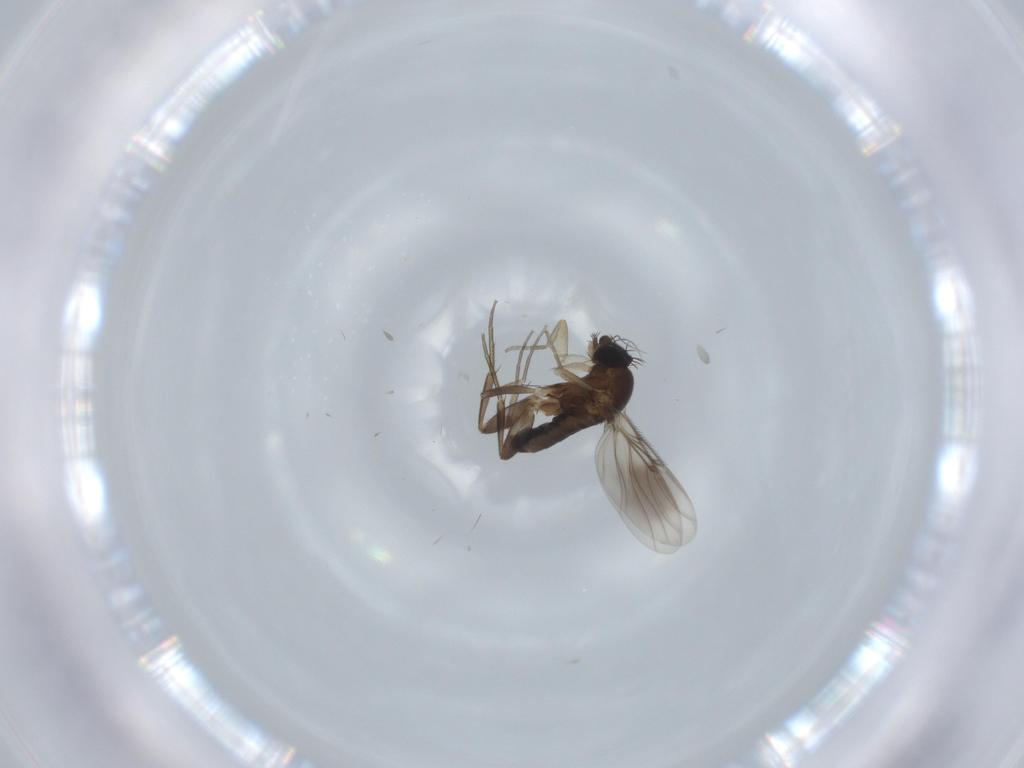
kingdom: Animalia
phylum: Arthropoda
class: Insecta
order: Diptera
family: Phoridae
